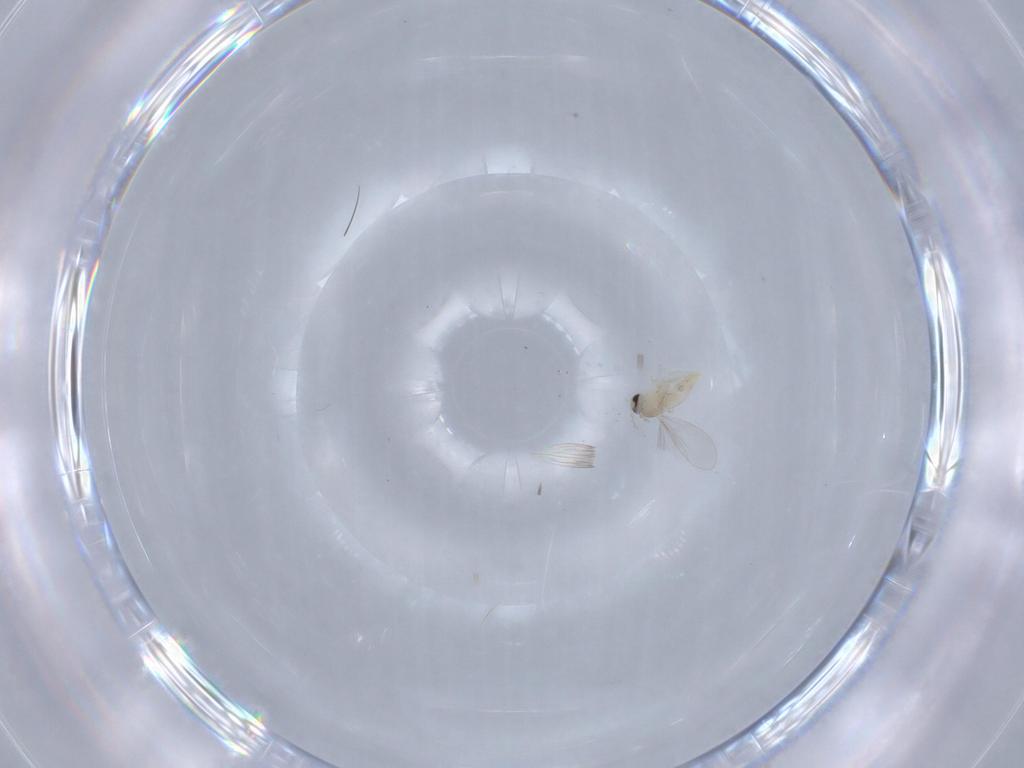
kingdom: Animalia
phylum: Arthropoda
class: Insecta
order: Diptera
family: Cecidomyiidae
